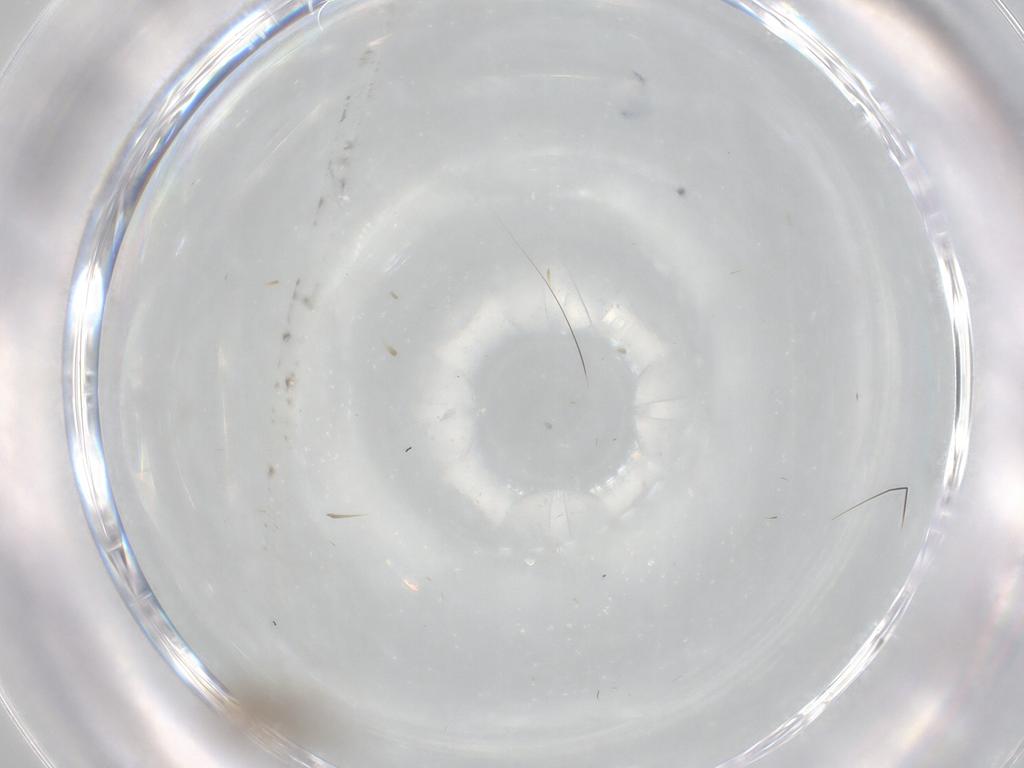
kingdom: Animalia
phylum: Arthropoda
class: Insecta
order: Diptera
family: Chironomidae
